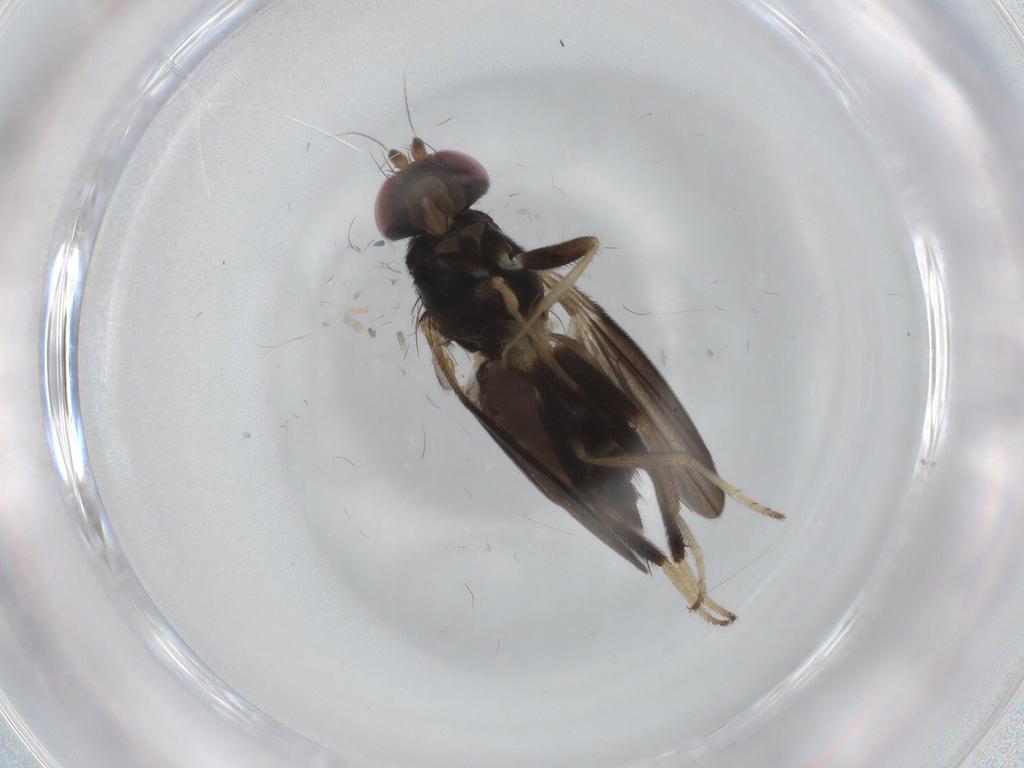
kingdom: Animalia
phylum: Arthropoda
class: Insecta
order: Diptera
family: Clusiidae
